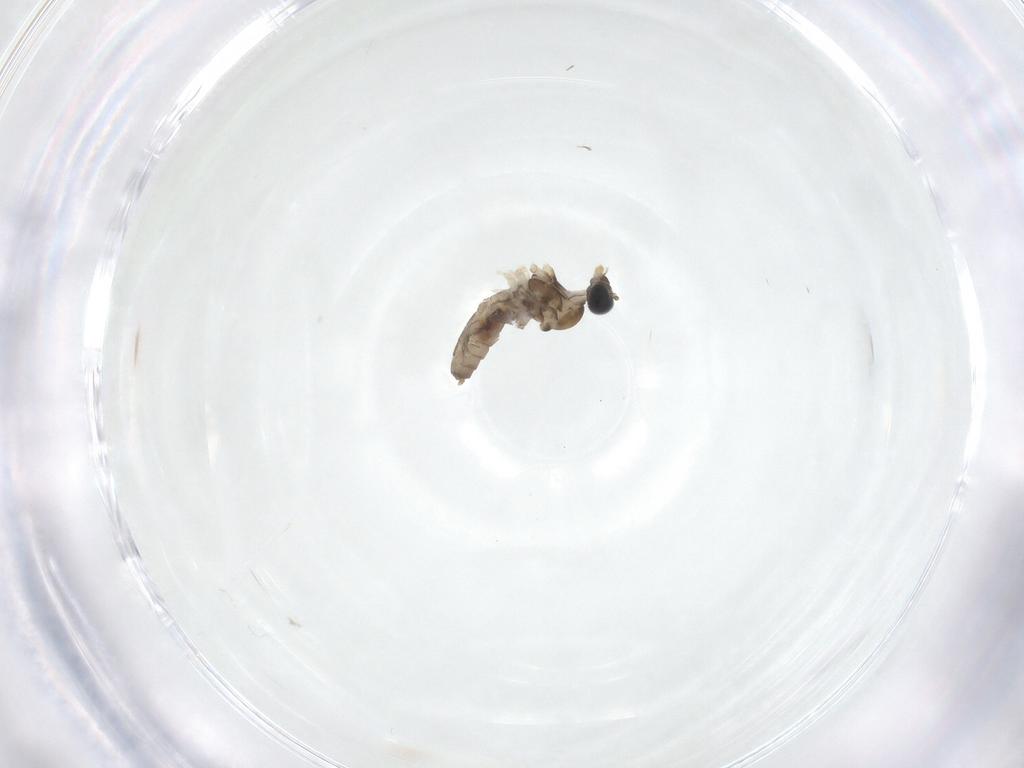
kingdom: Animalia
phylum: Arthropoda
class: Insecta
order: Diptera
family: Cecidomyiidae
